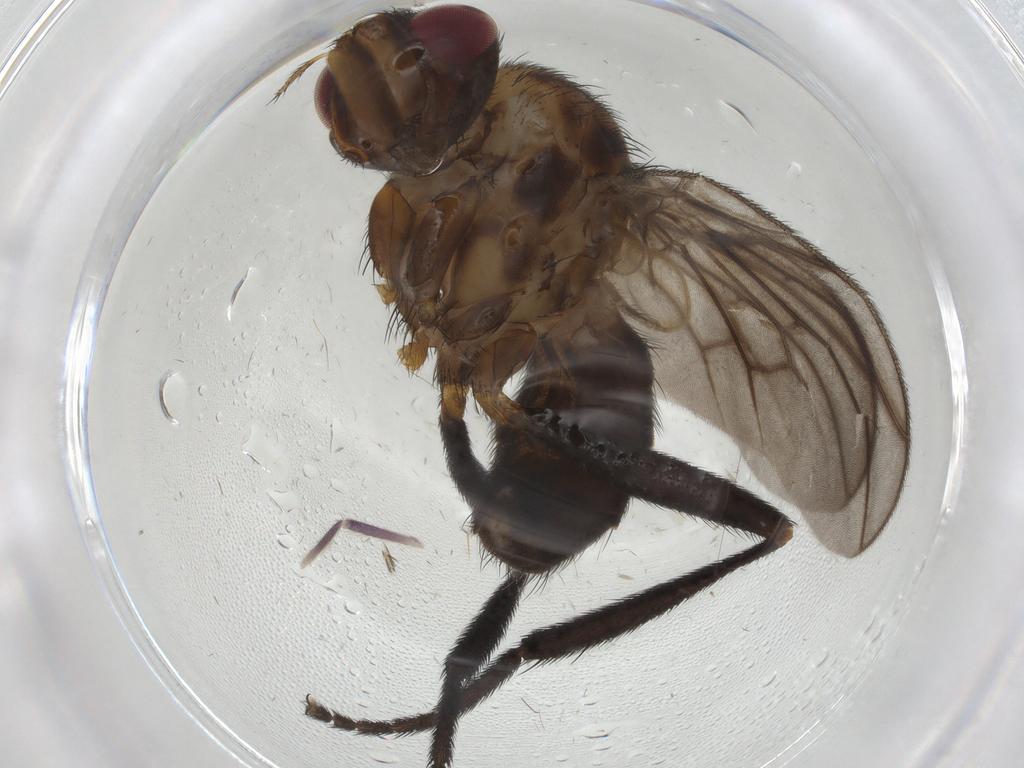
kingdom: Animalia
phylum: Arthropoda
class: Insecta
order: Diptera
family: Calliphoridae
